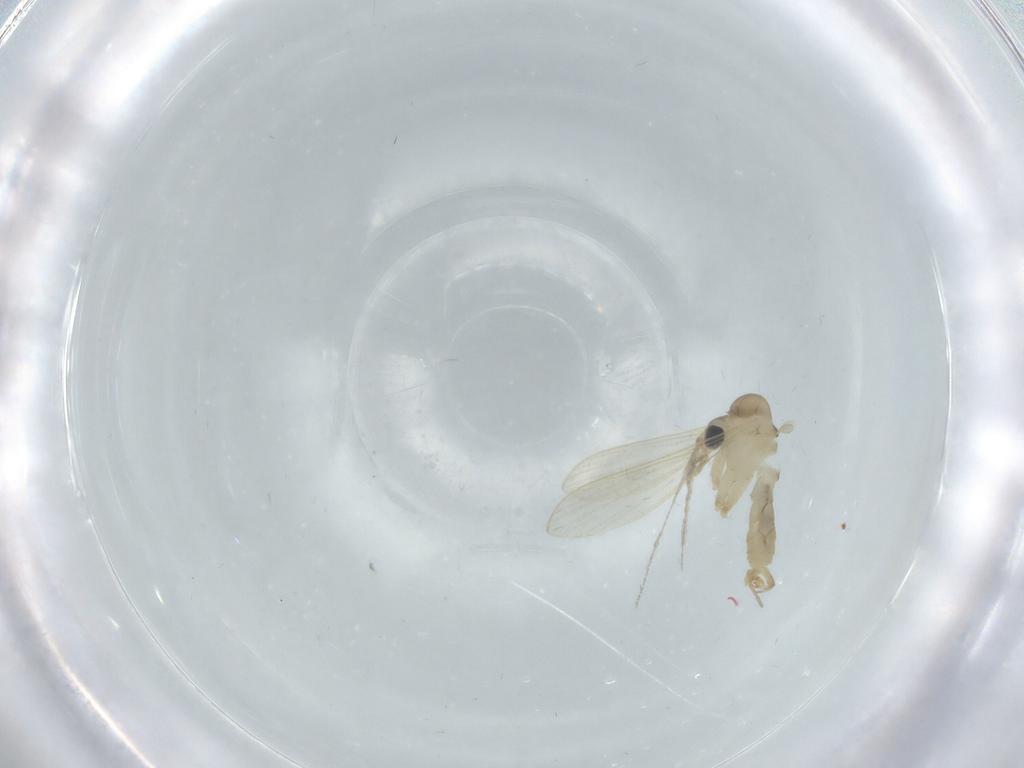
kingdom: Animalia
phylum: Arthropoda
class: Insecta
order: Diptera
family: Psychodidae
